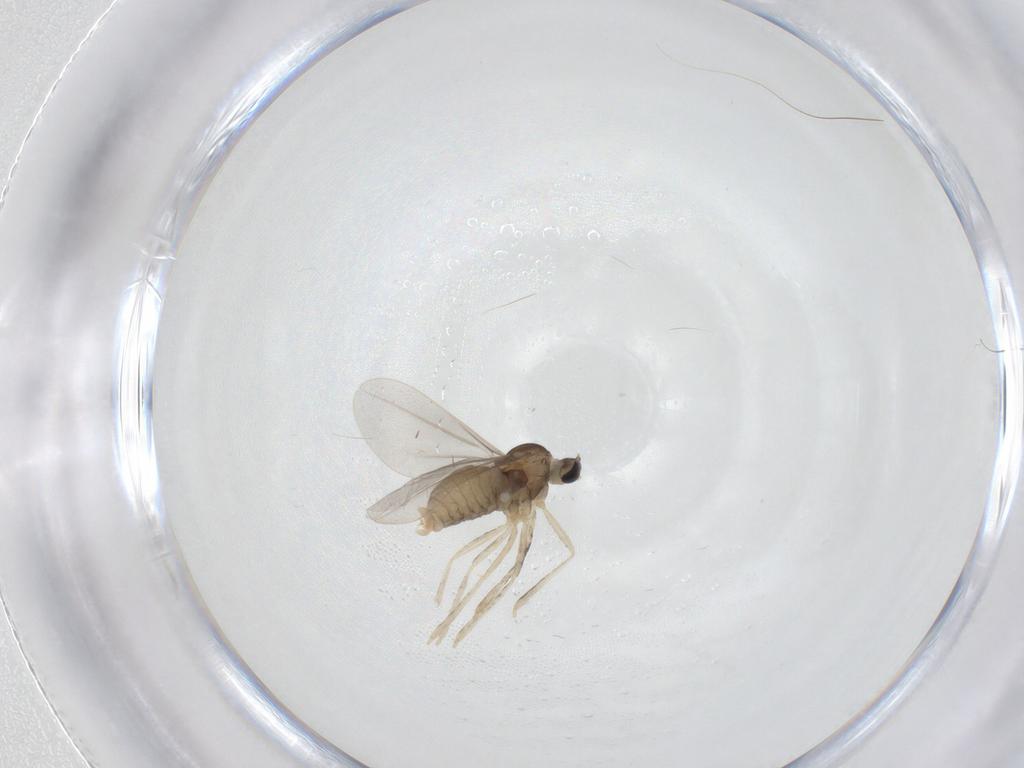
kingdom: Animalia
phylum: Arthropoda
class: Insecta
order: Diptera
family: Cecidomyiidae
